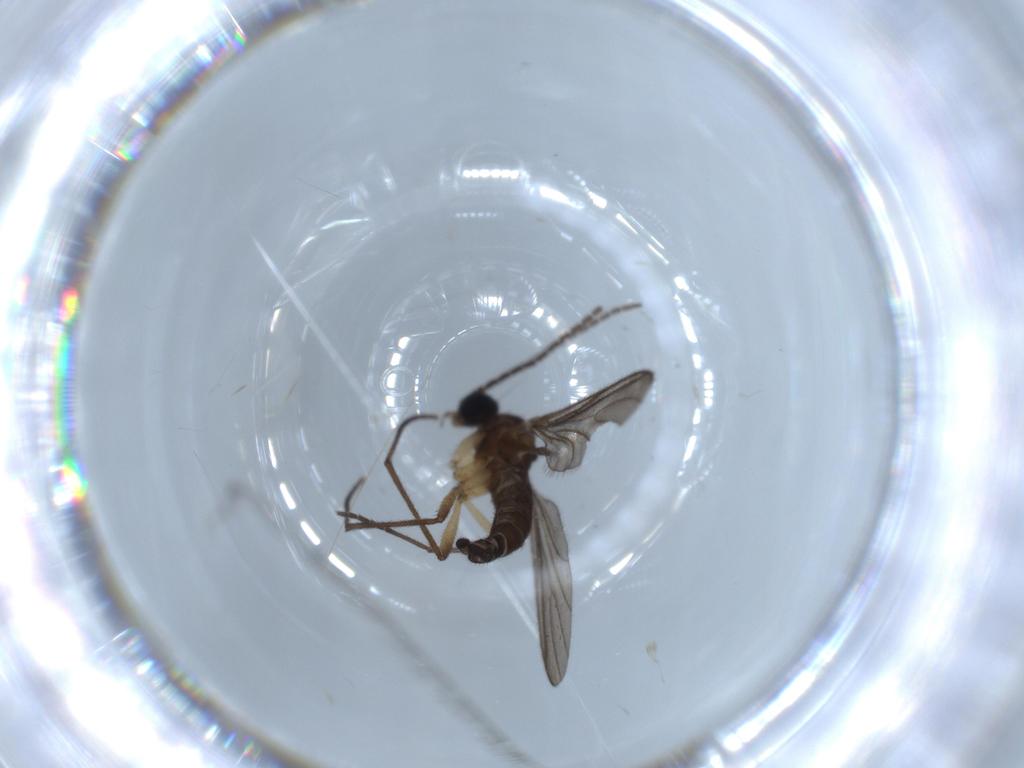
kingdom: Animalia
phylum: Arthropoda
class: Insecta
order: Diptera
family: Sciaridae
